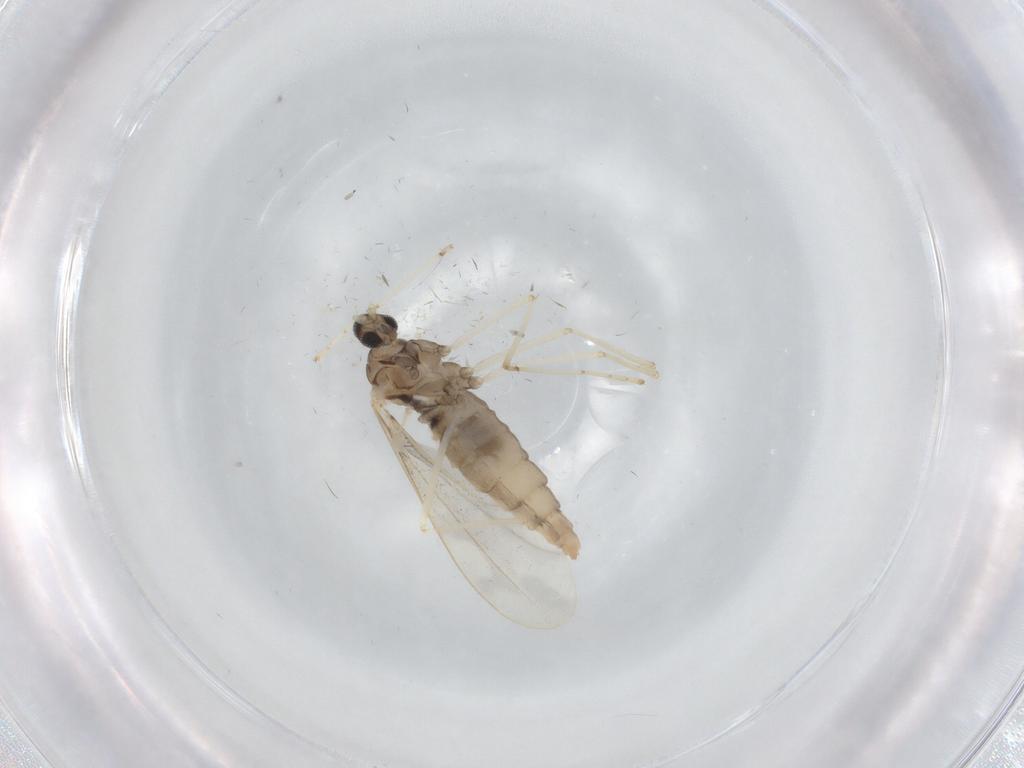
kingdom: Animalia
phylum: Arthropoda
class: Insecta
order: Diptera
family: Cecidomyiidae
